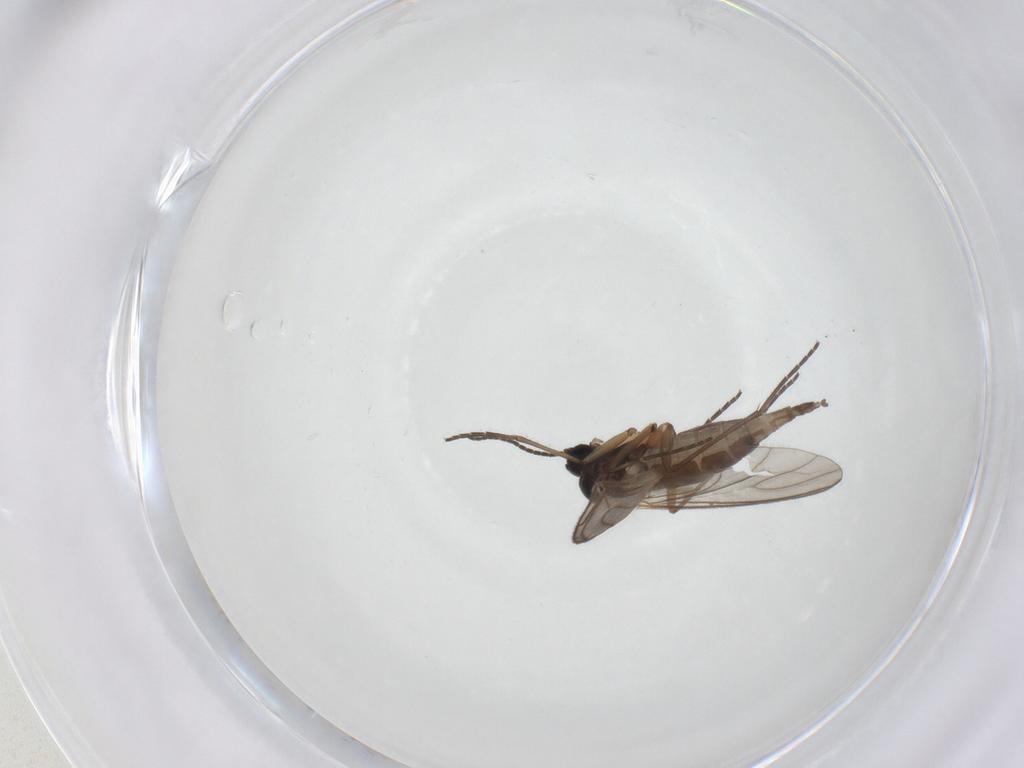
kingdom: Animalia
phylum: Arthropoda
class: Insecta
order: Diptera
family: Sciaridae
